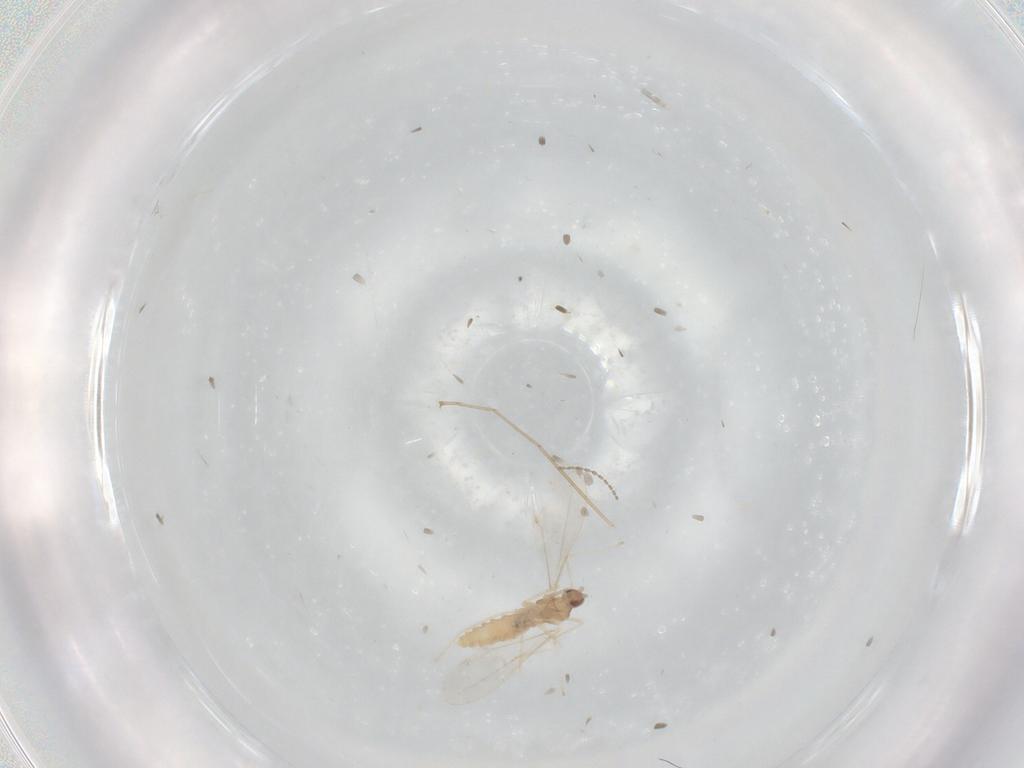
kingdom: Animalia
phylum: Arthropoda
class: Insecta
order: Diptera
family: Cecidomyiidae
